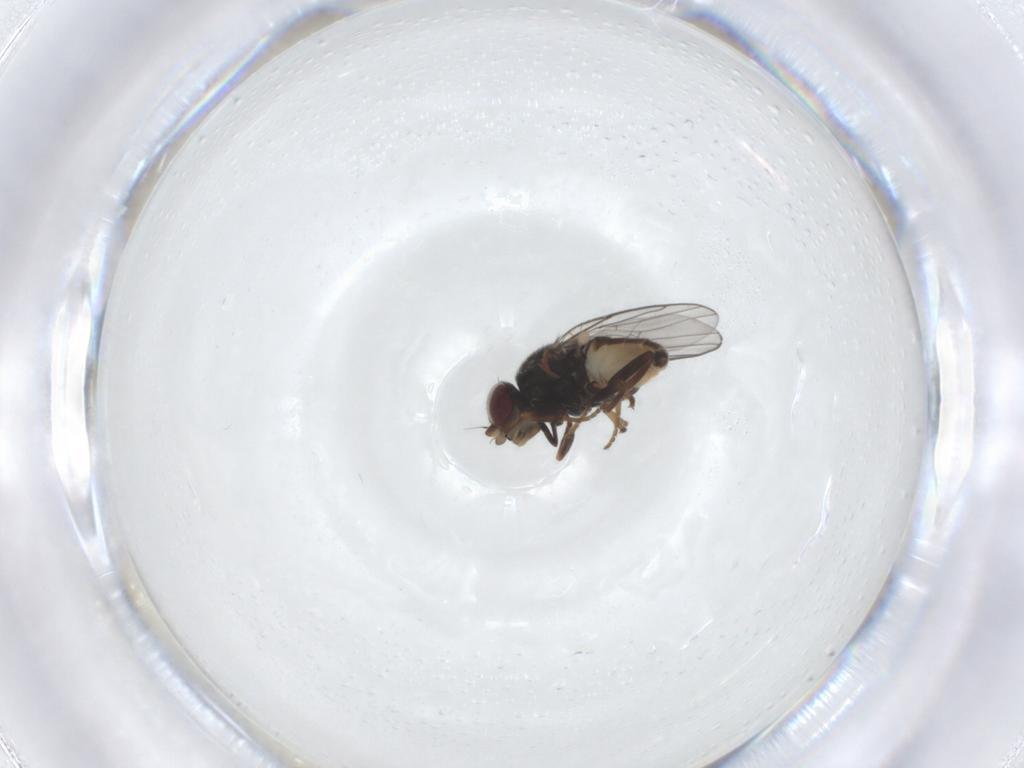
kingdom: Animalia
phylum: Arthropoda
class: Insecta
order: Diptera
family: Chloropidae
